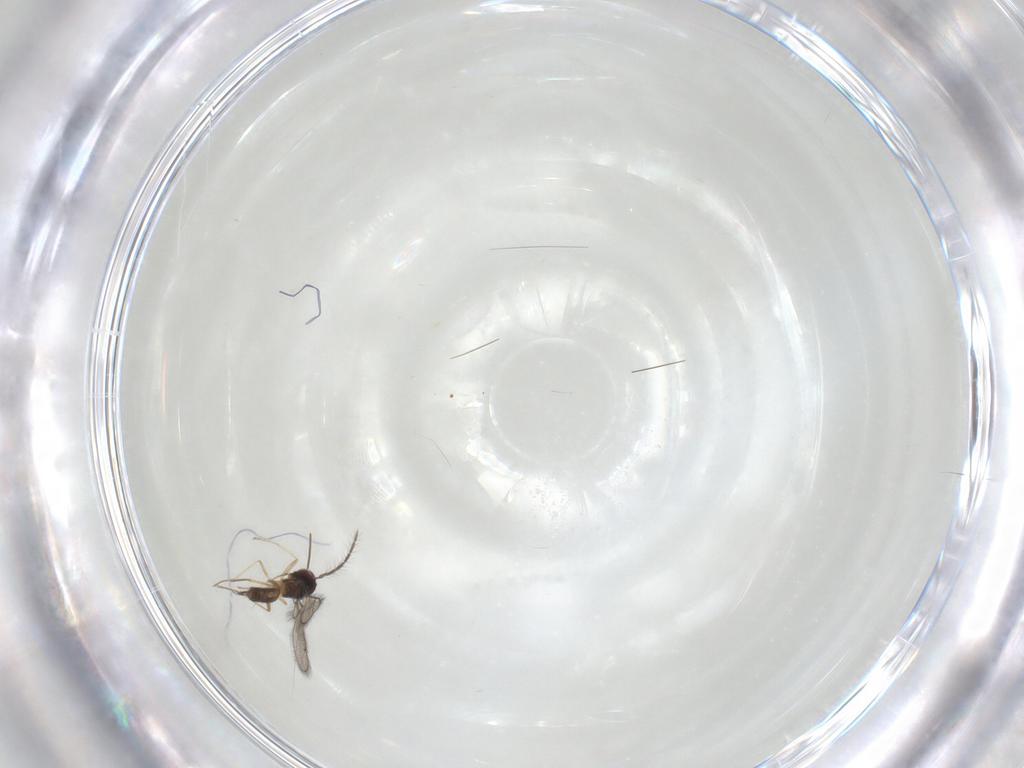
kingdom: Animalia
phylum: Arthropoda
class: Insecta
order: Hymenoptera
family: Eulophidae
